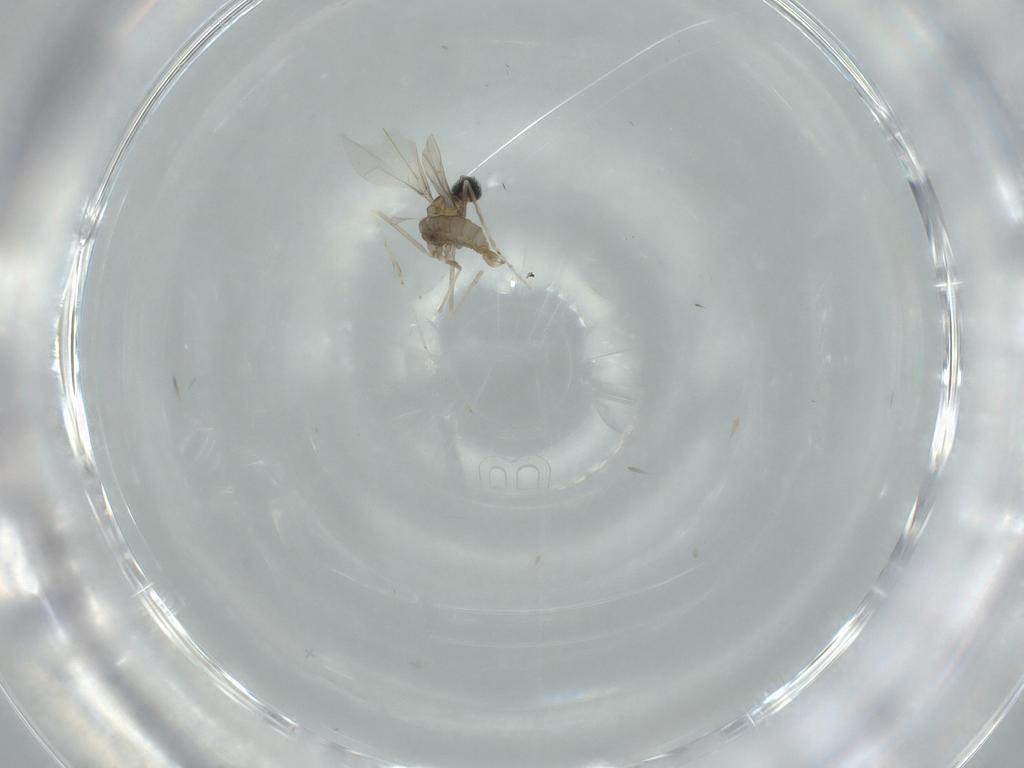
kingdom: Animalia
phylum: Arthropoda
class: Insecta
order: Diptera
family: Cecidomyiidae
